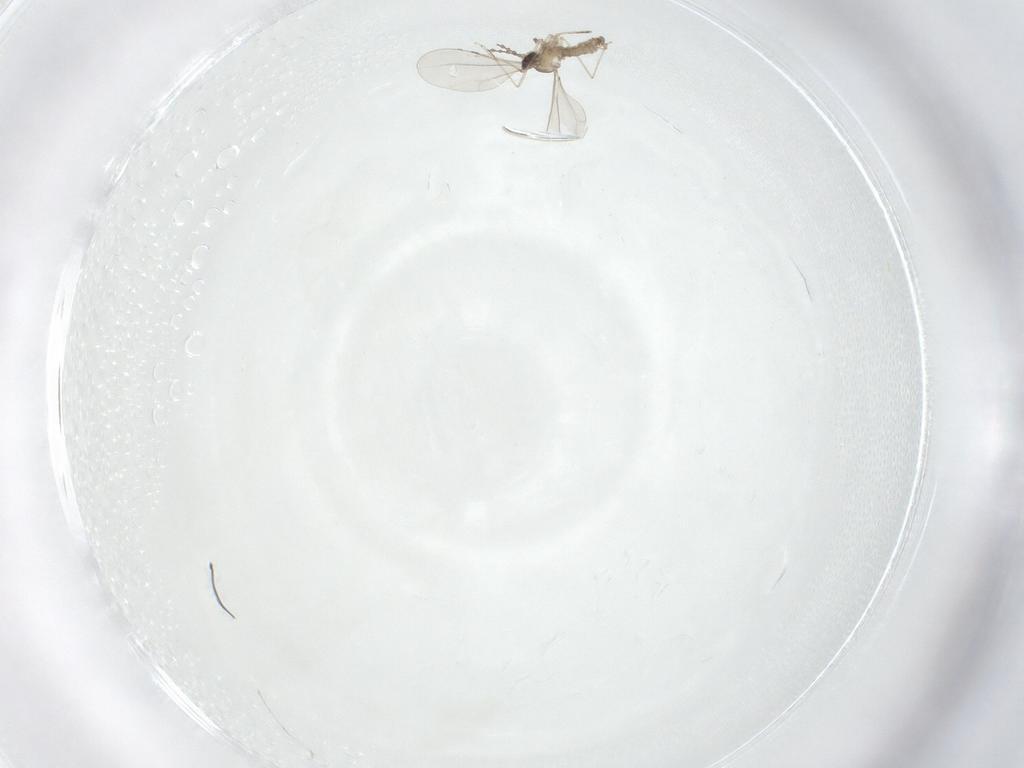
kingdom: Animalia
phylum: Arthropoda
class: Insecta
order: Diptera
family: Cecidomyiidae
